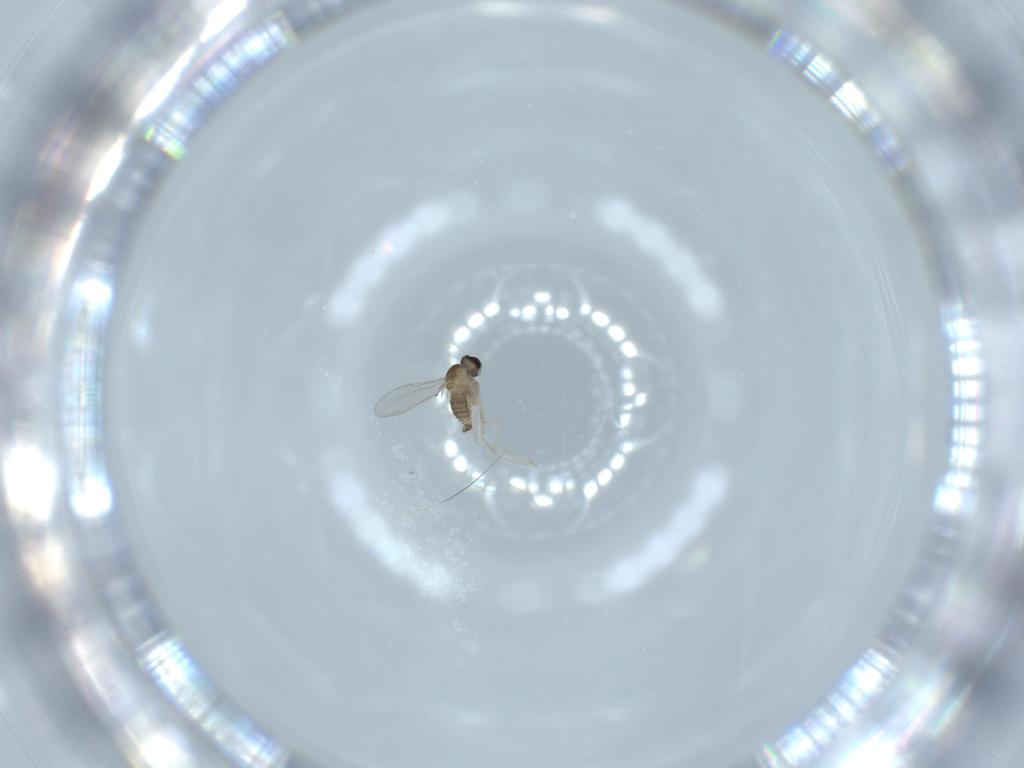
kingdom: Animalia
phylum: Arthropoda
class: Insecta
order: Diptera
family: Cecidomyiidae
